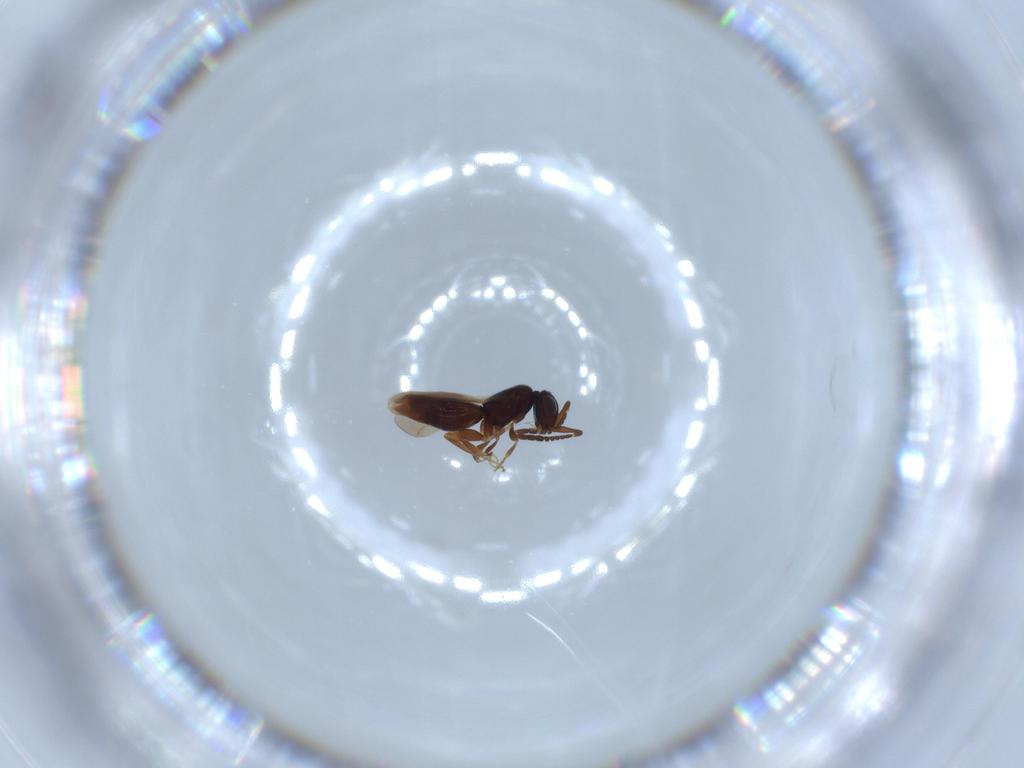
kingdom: Animalia
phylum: Arthropoda
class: Insecta
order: Hymenoptera
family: Ceraphronidae
